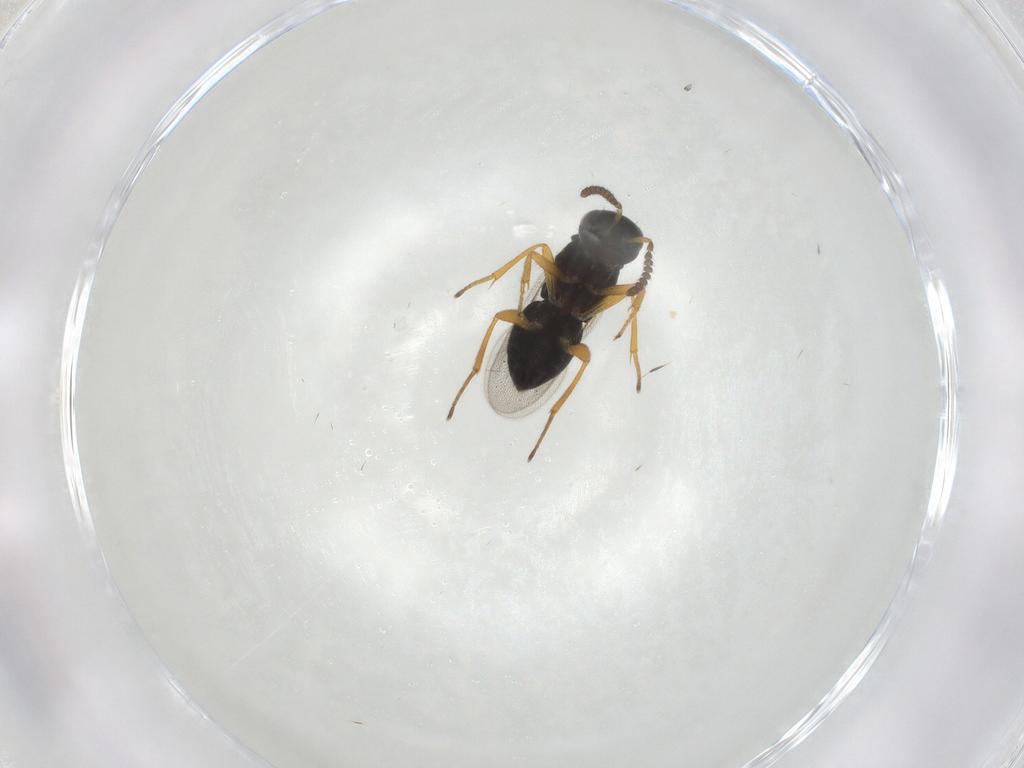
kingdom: Animalia
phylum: Arthropoda
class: Insecta
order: Hymenoptera
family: Encyrtidae
